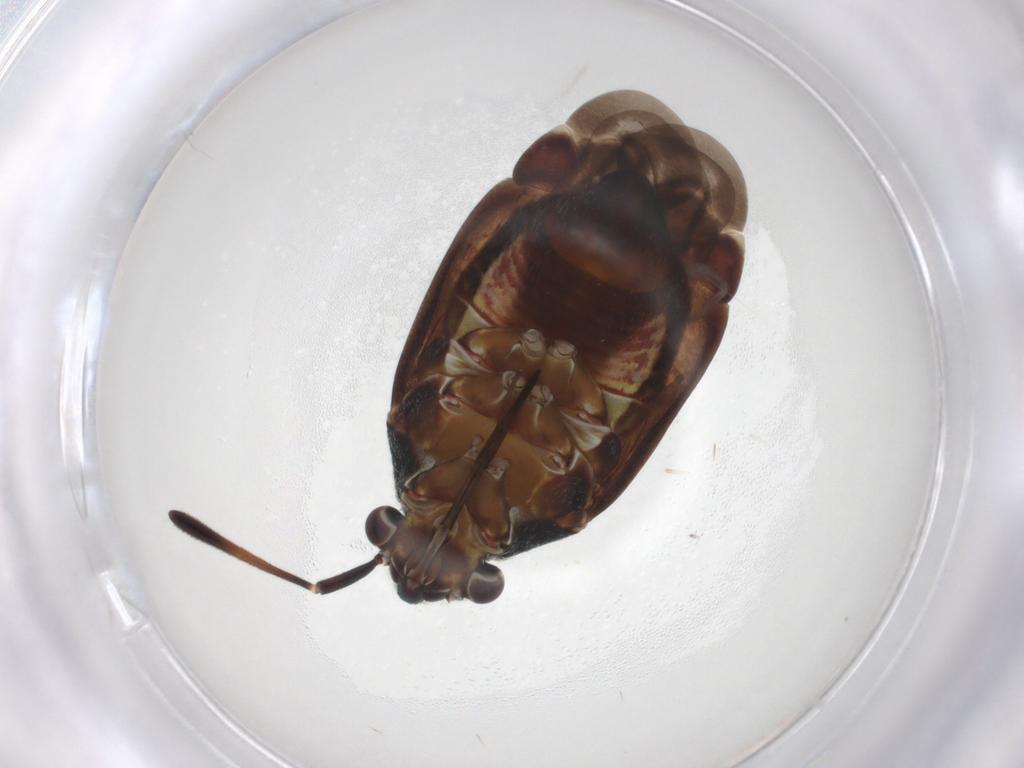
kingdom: Animalia
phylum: Arthropoda
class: Insecta
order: Hemiptera
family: Miridae
